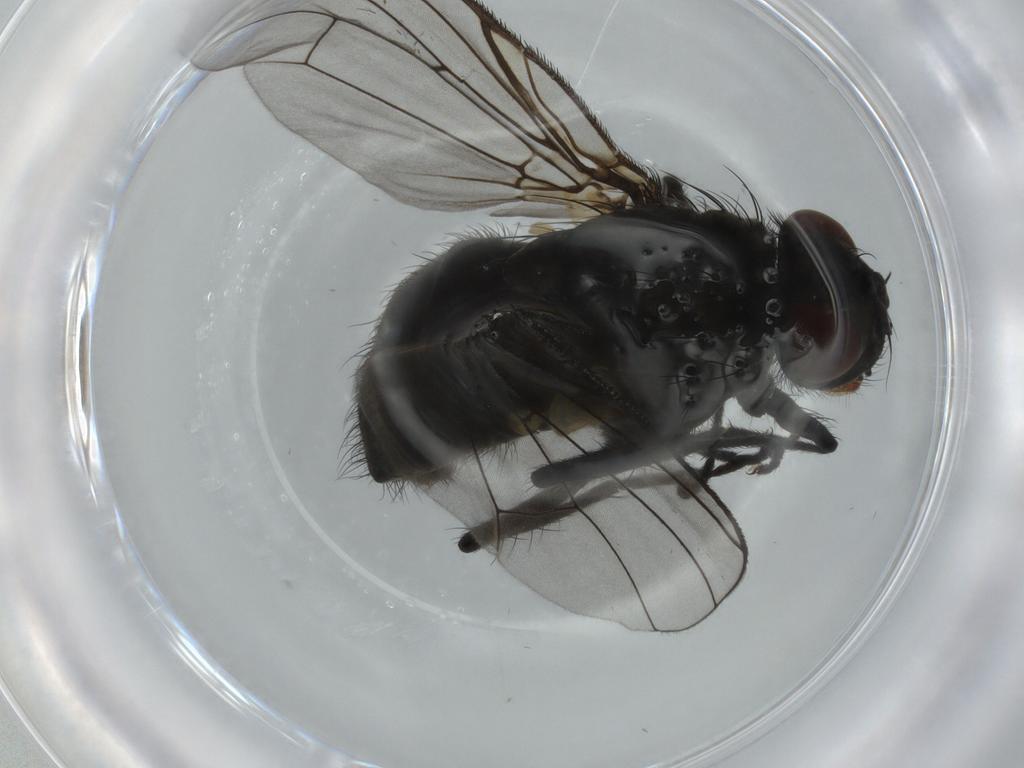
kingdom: Animalia
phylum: Arthropoda
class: Insecta
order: Diptera
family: Muscidae
